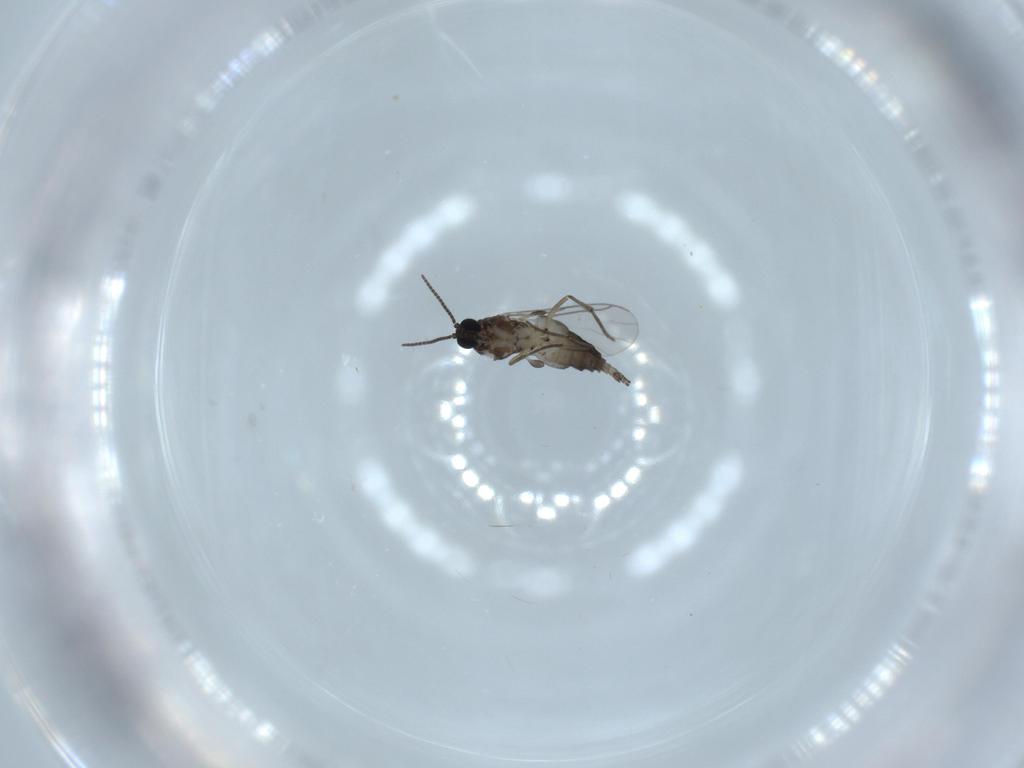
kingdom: Animalia
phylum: Arthropoda
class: Insecta
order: Diptera
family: Sciaridae
